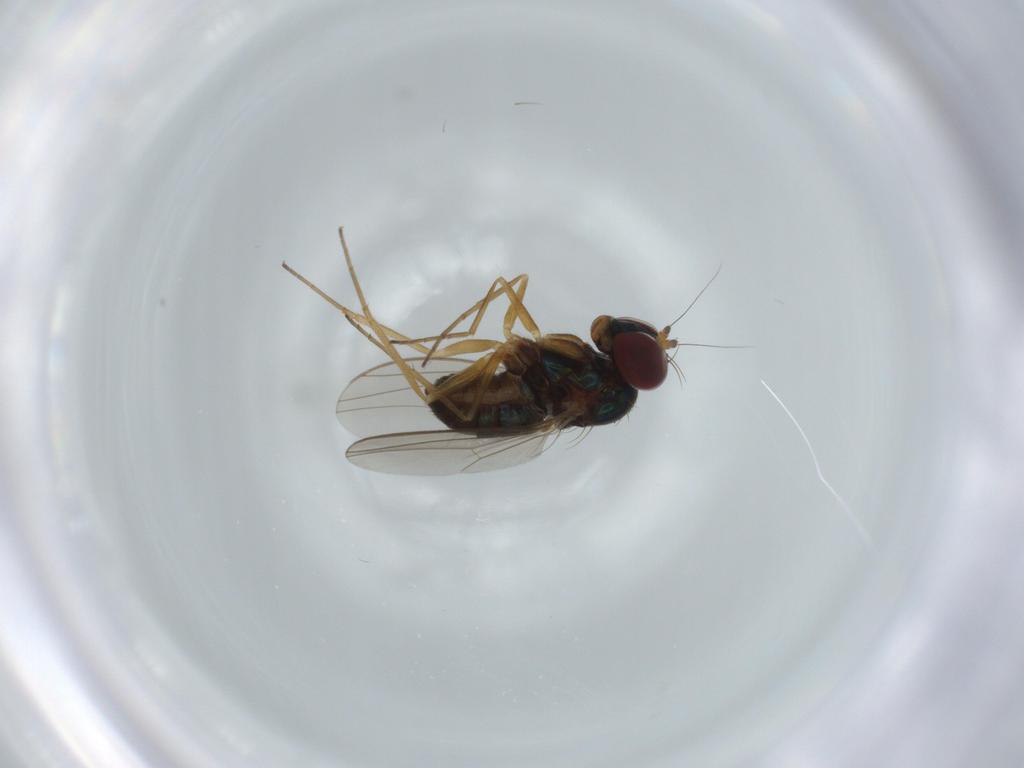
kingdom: Animalia
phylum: Arthropoda
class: Insecta
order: Diptera
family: Dolichopodidae
